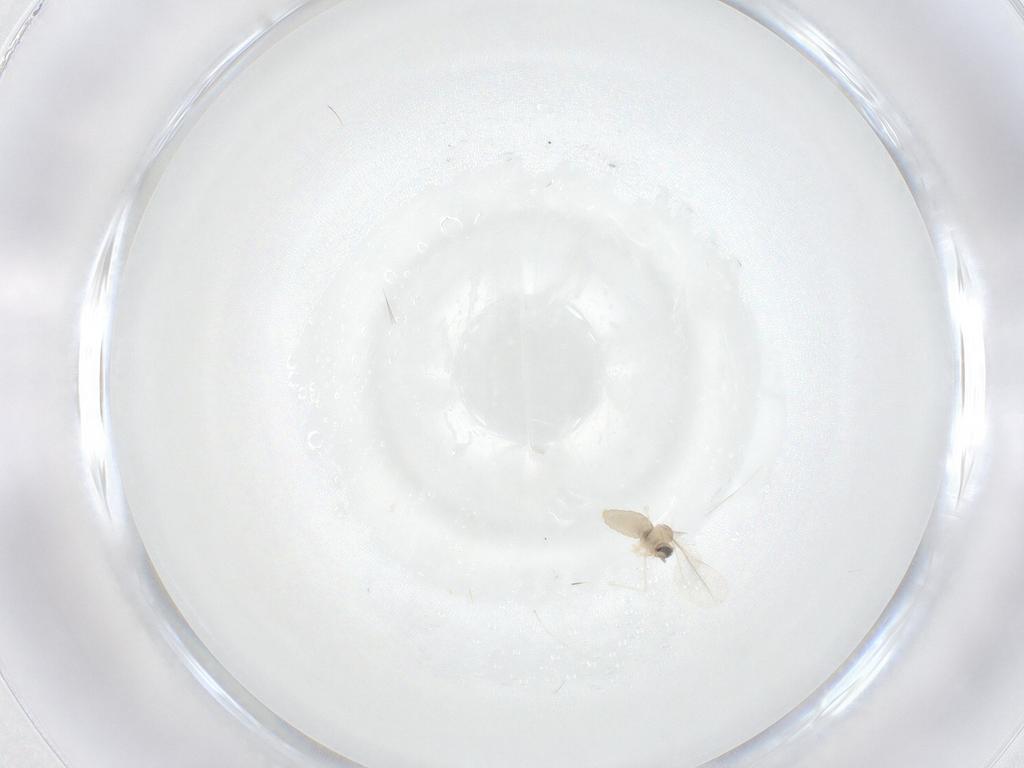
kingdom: Animalia
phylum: Arthropoda
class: Insecta
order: Diptera
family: Cecidomyiidae
